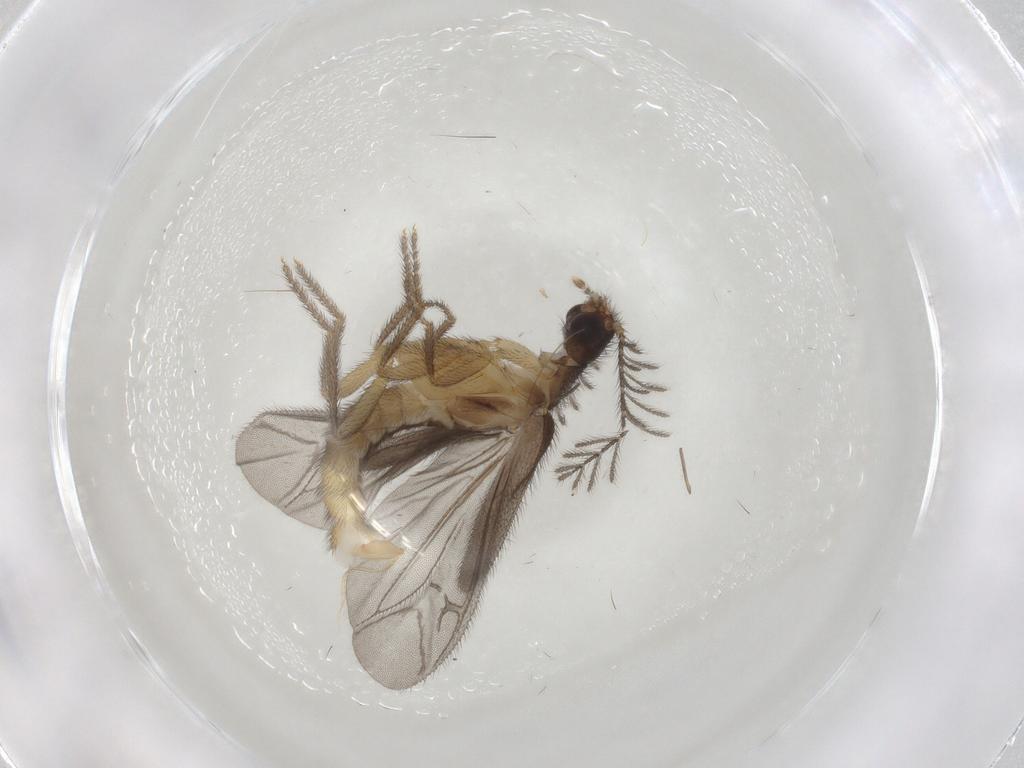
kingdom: Animalia
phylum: Arthropoda
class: Insecta
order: Coleoptera
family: Phengodidae
